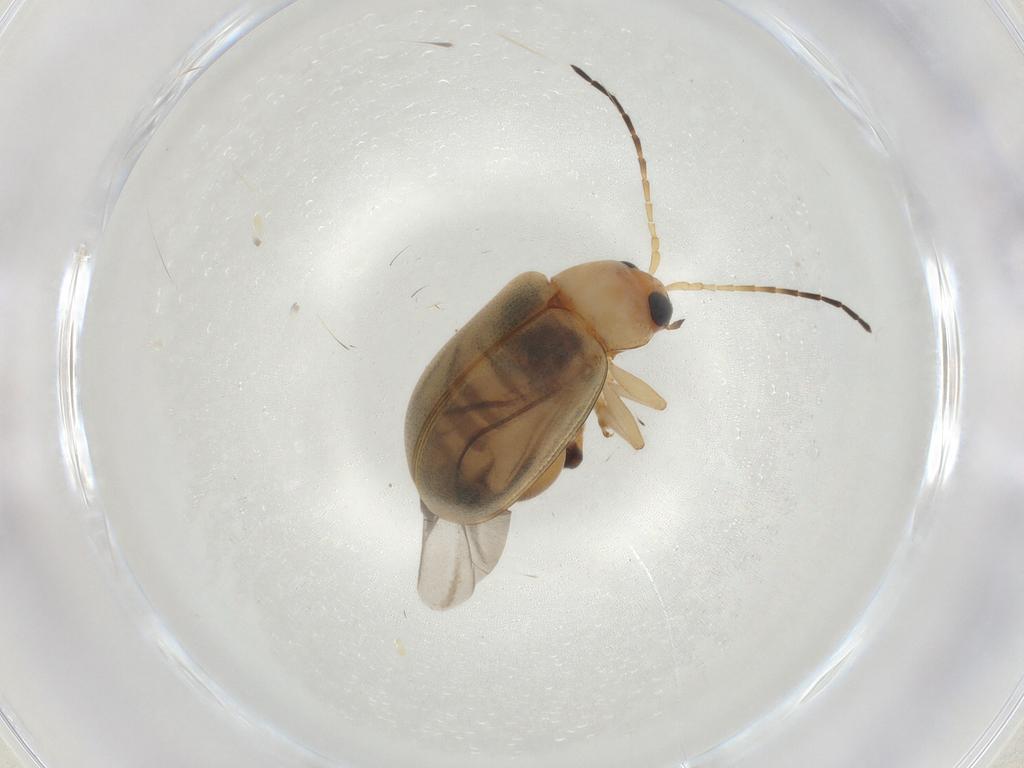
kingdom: Animalia
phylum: Arthropoda
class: Insecta
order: Coleoptera
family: Chrysomelidae
